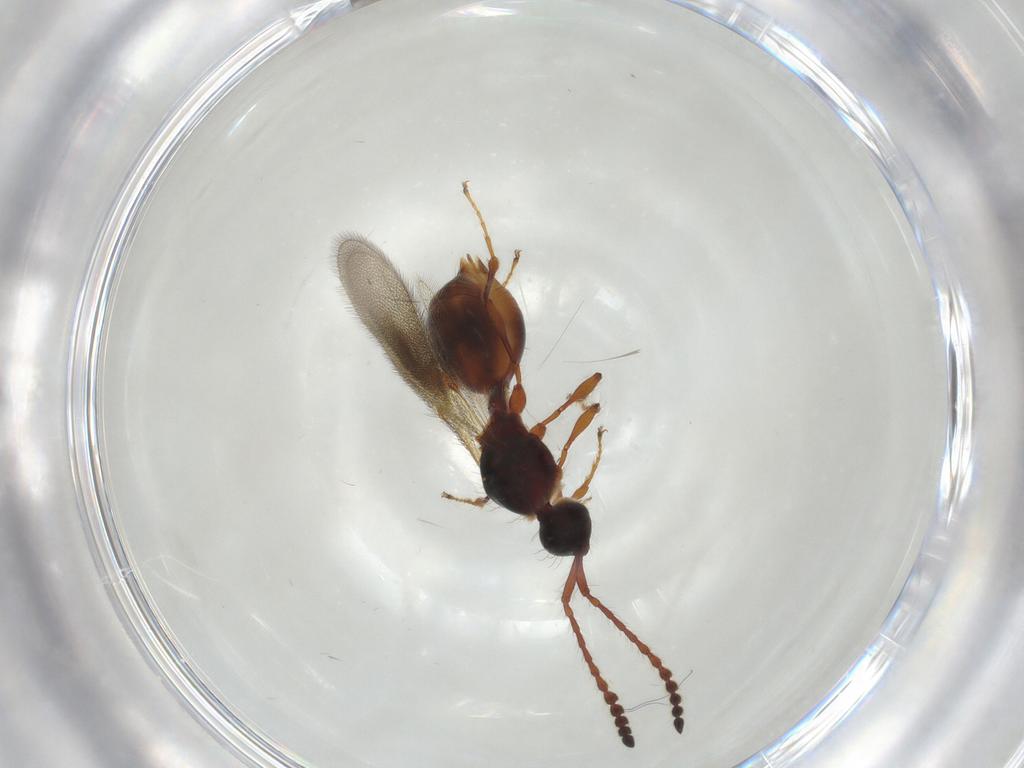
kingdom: Animalia
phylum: Arthropoda
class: Insecta
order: Hymenoptera
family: Diapriidae
